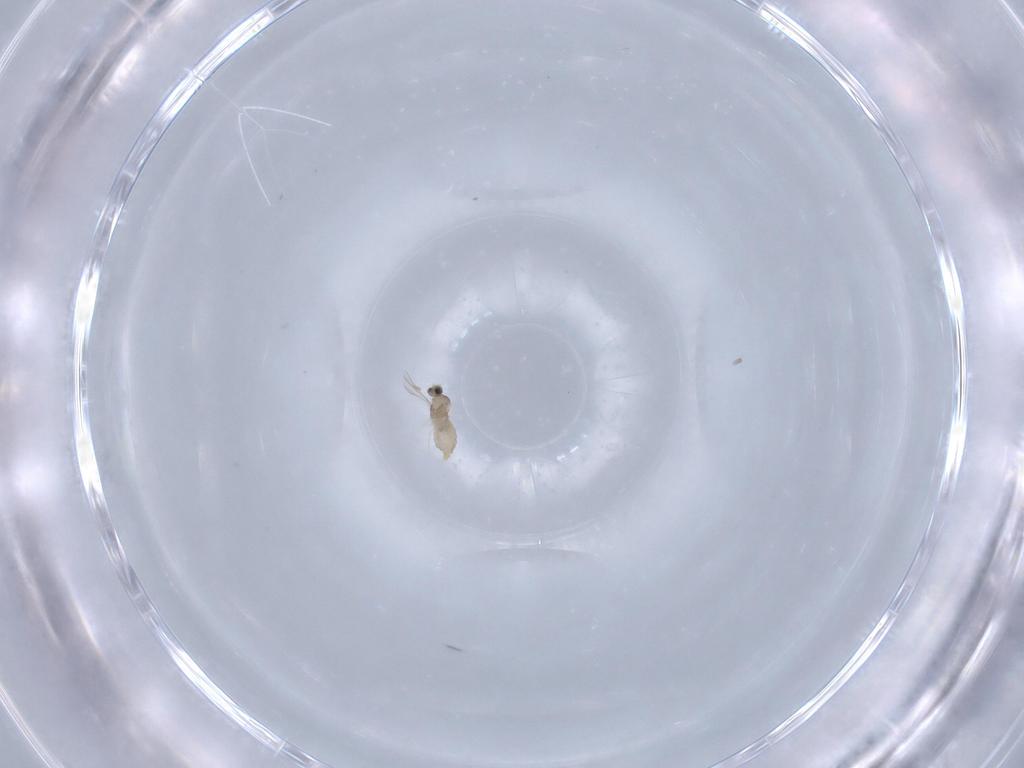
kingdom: Animalia
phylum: Arthropoda
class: Insecta
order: Diptera
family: Cecidomyiidae
